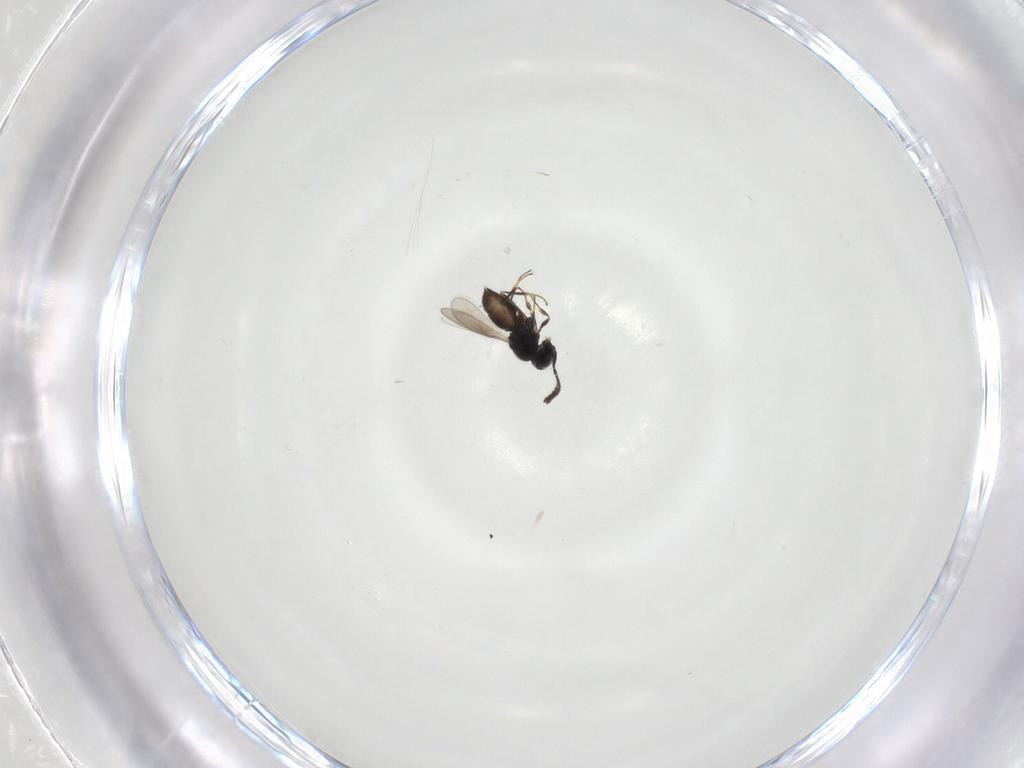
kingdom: Animalia
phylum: Arthropoda
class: Insecta
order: Hymenoptera
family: Scelionidae
